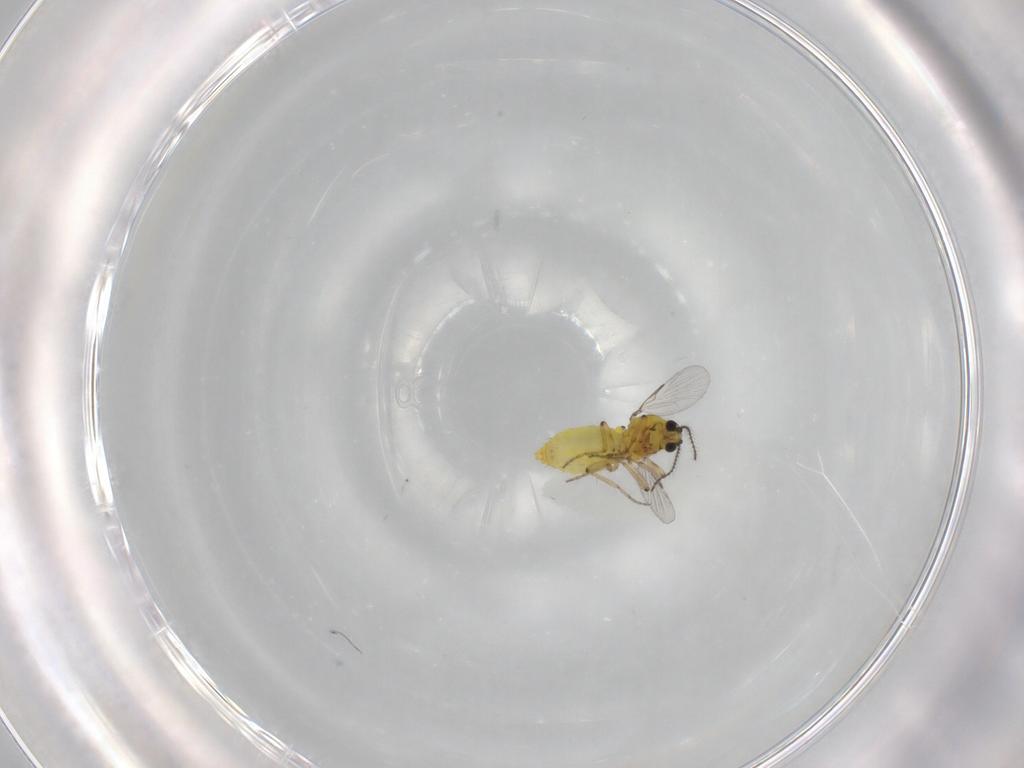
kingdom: Animalia
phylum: Arthropoda
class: Insecta
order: Diptera
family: Ceratopogonidae
